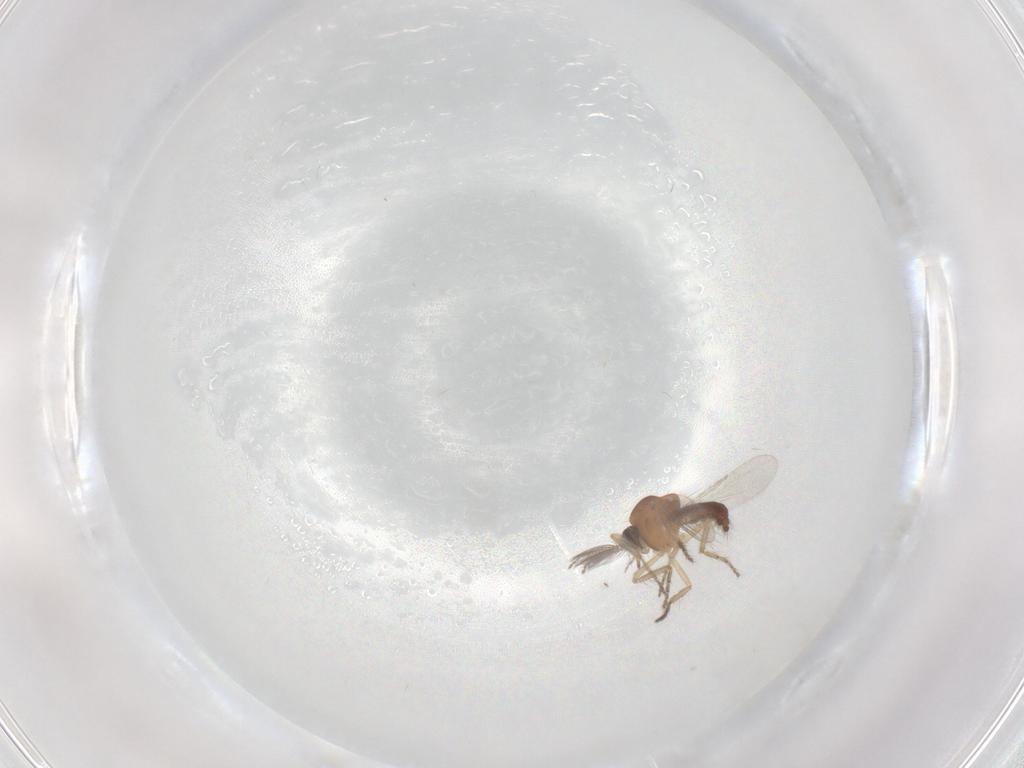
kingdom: Animalia
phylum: Arthropoda
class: Insecta
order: Diptera
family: Ceratopogonidae
